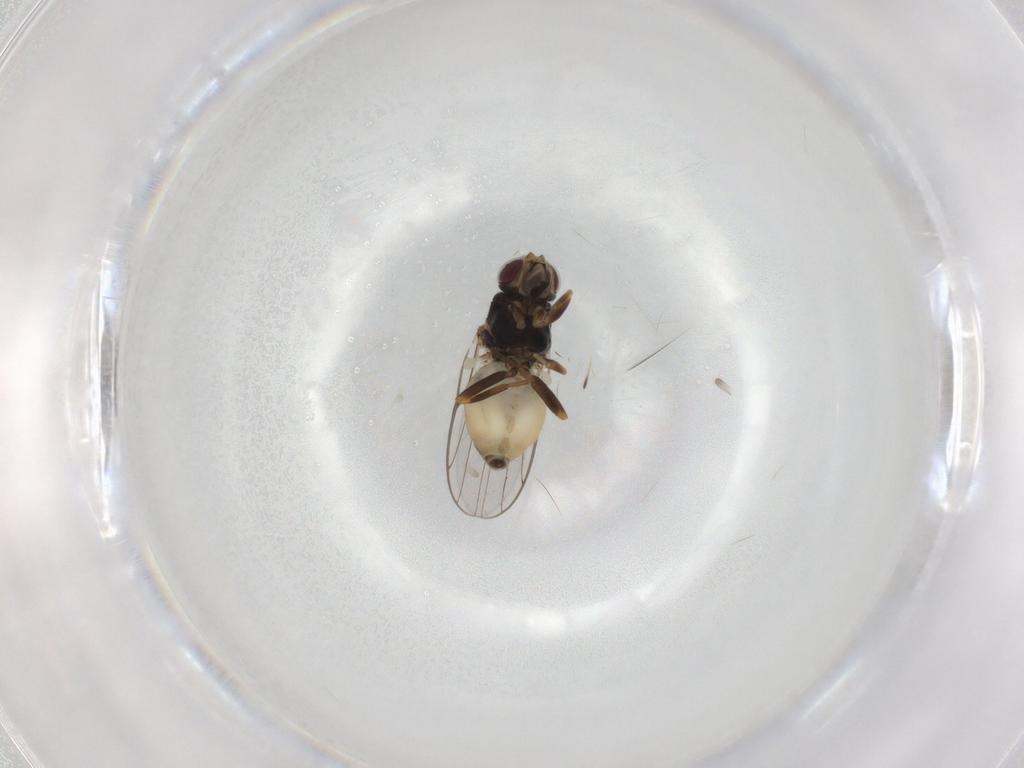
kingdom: Animalia
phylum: Arthropoda
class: Insecta
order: Diptera
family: Chloropidae
